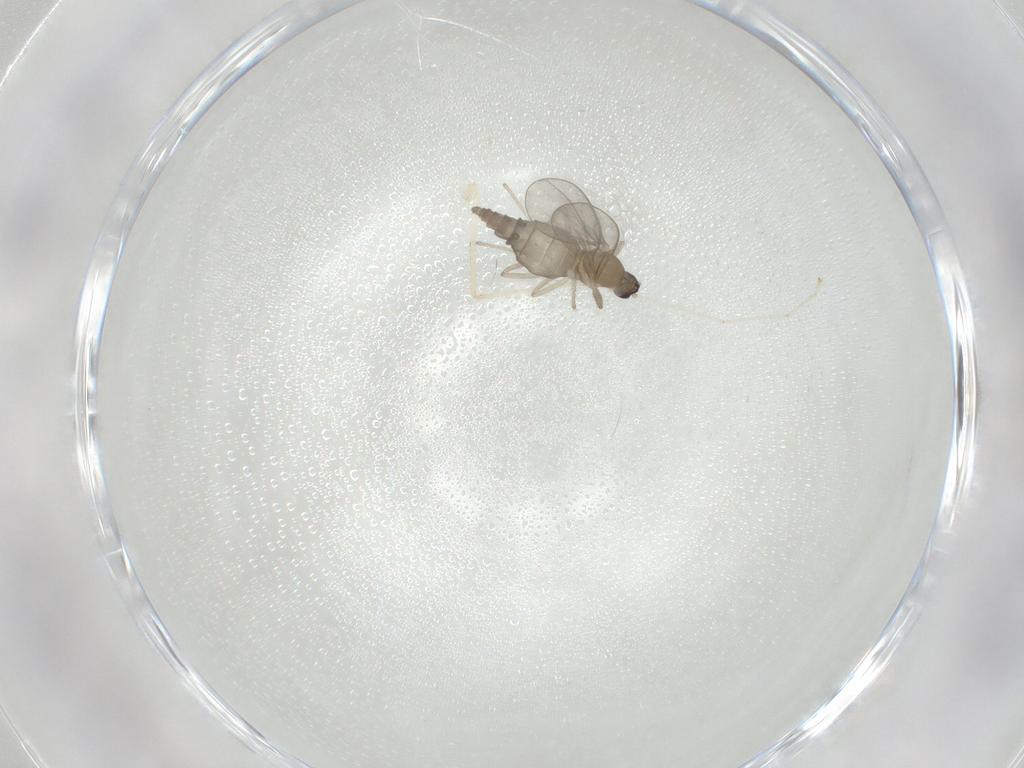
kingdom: Animalia
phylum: Arthropoda
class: Insecta
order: Diptera
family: Cecidomyiidae
